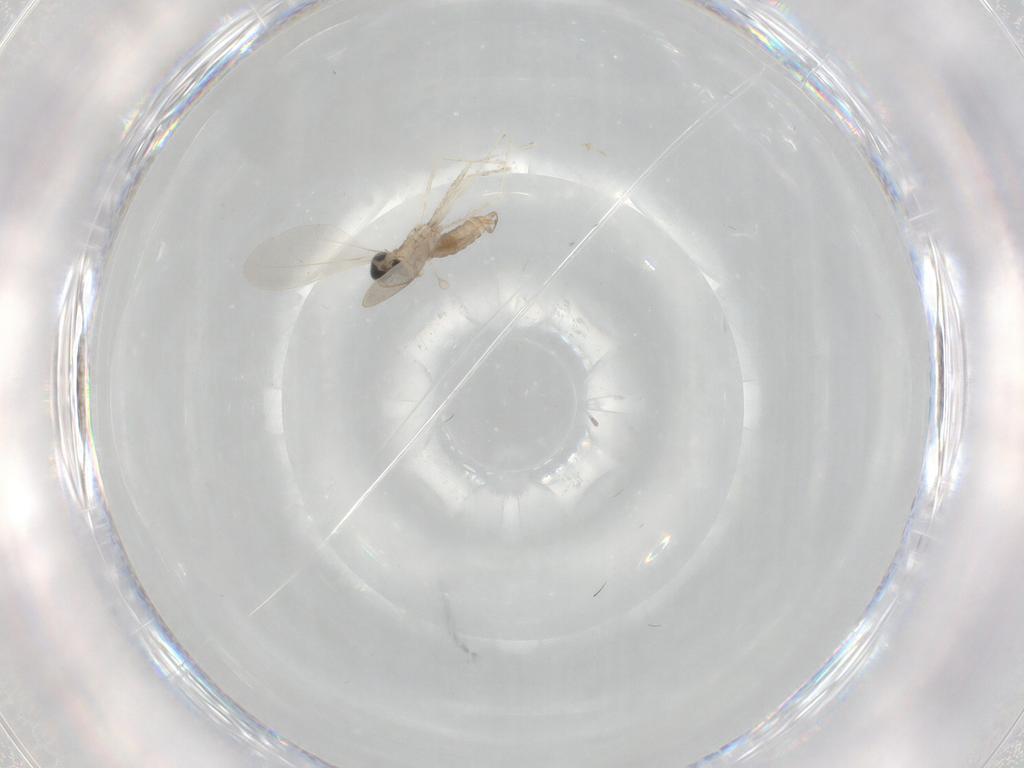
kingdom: Animalia
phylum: Arthropoda
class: Insecta
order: Diptera
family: Cecidomyiidae
